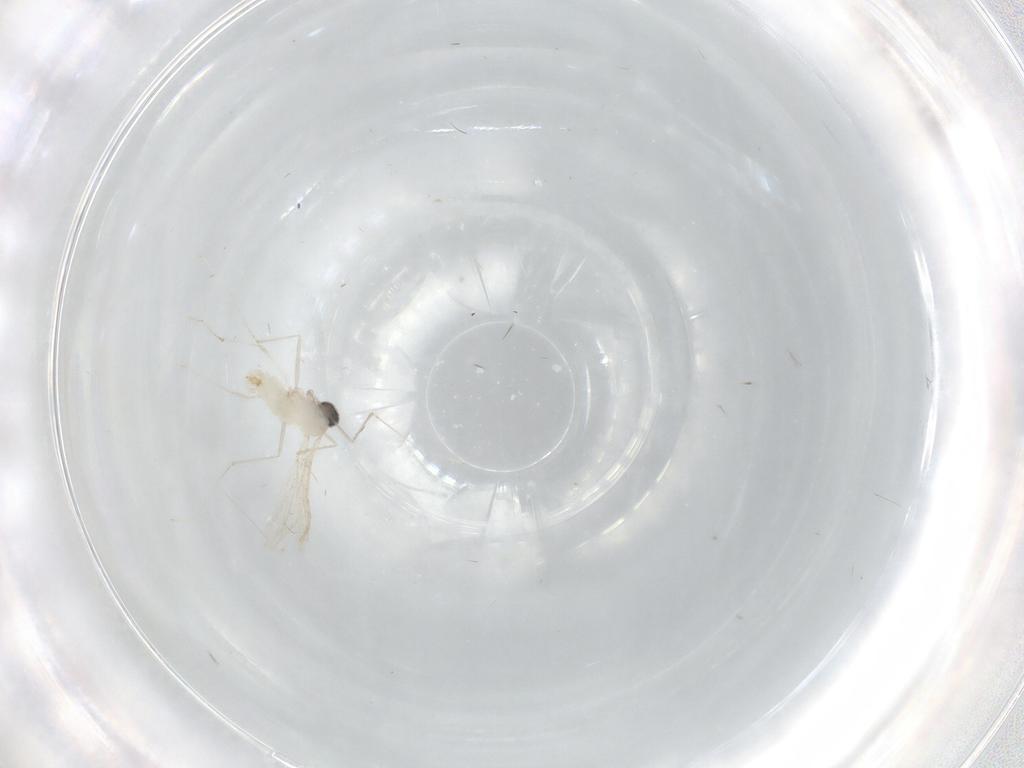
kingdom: Animalia
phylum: Arthropoda
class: Insecta
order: Diptera
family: Cecidomyiidae
